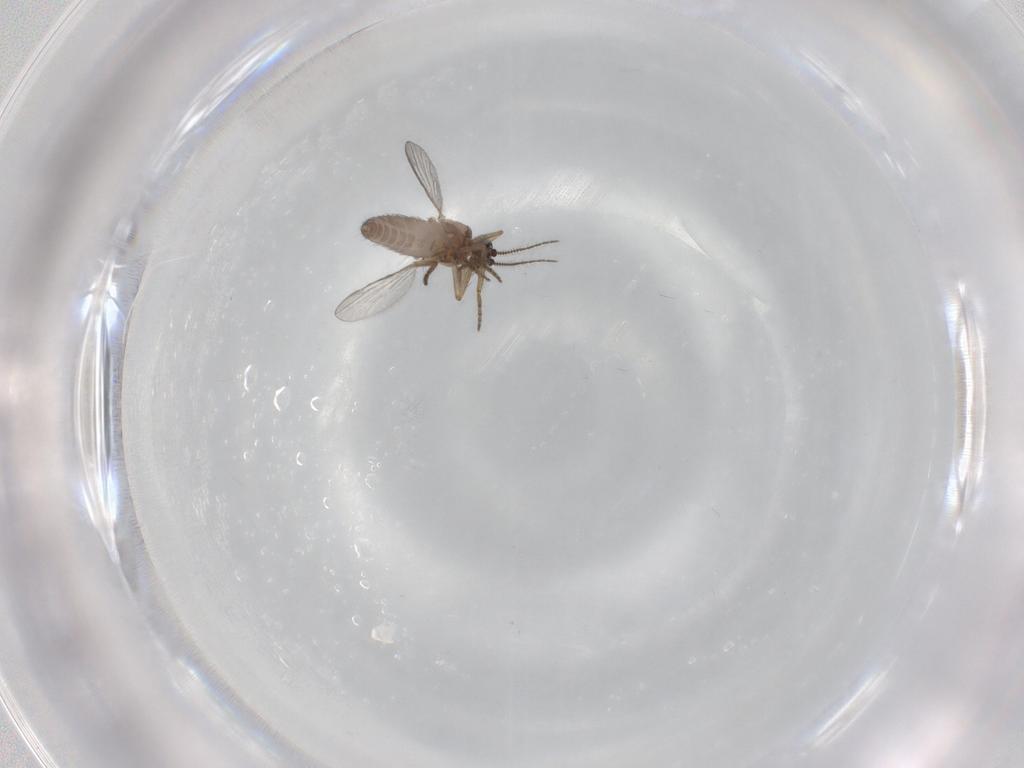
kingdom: Animalia
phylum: Arthropoda
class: Insecta
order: Diptera
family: Ceratopogonidae
